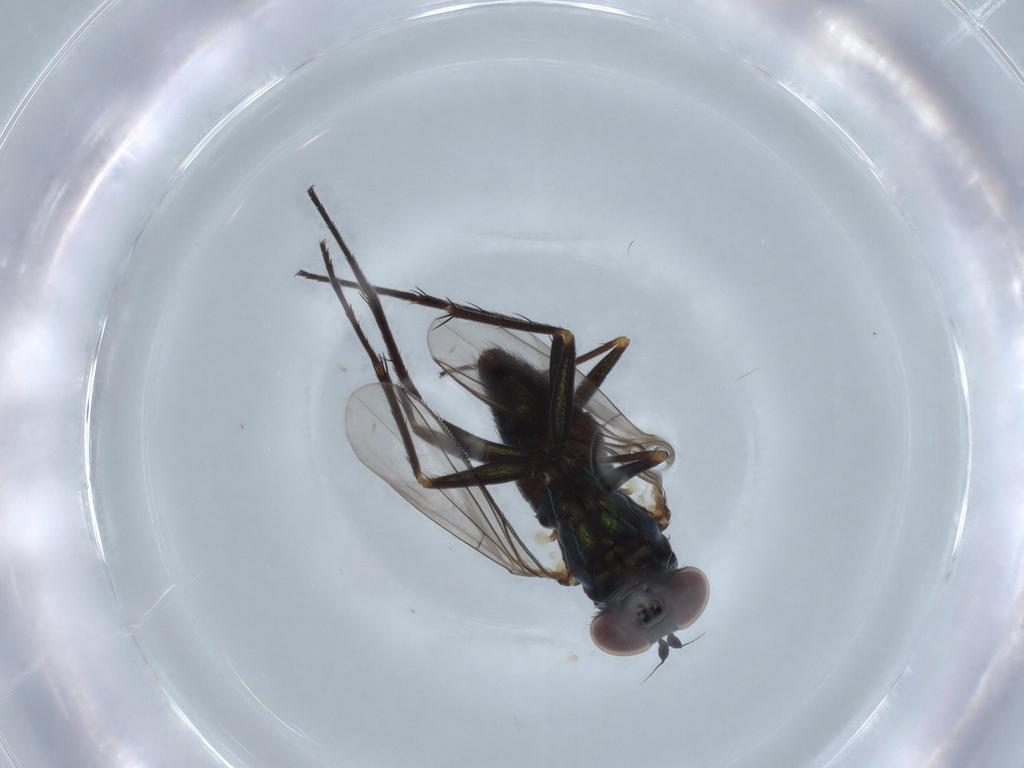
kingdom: Animalia
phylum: Arthropoda
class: Insecta
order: Diptera
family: Dolichopodidae
